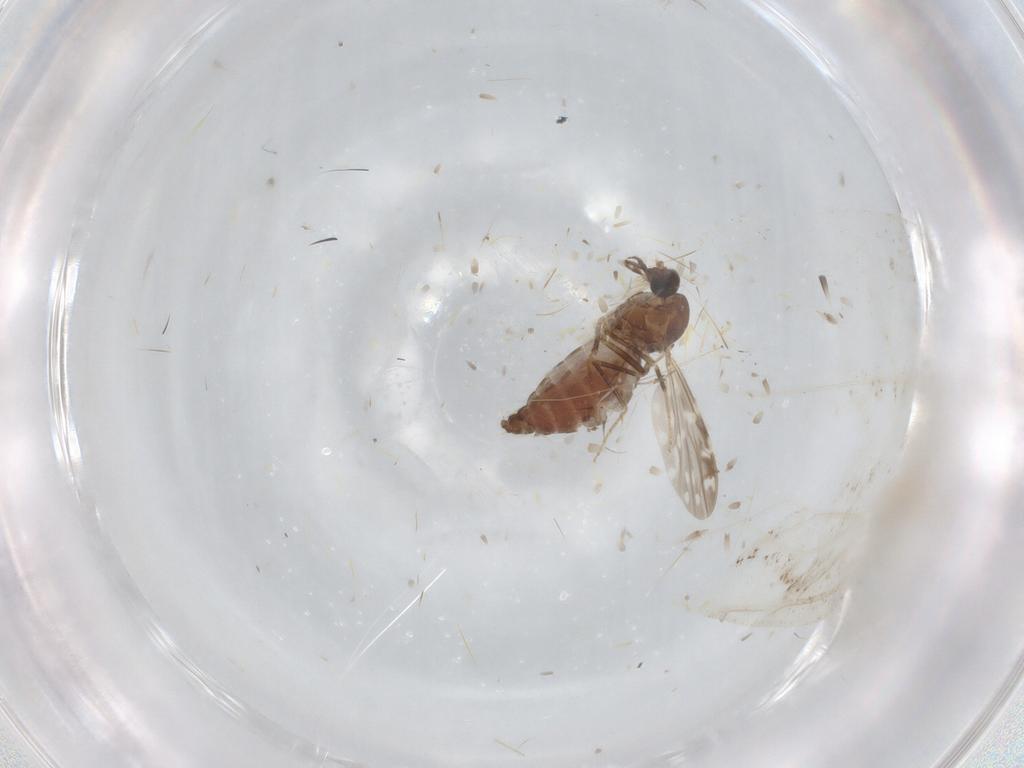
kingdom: Animalia
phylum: Arthropoda
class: Insecta
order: Diptera
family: Ceratopogonidae
